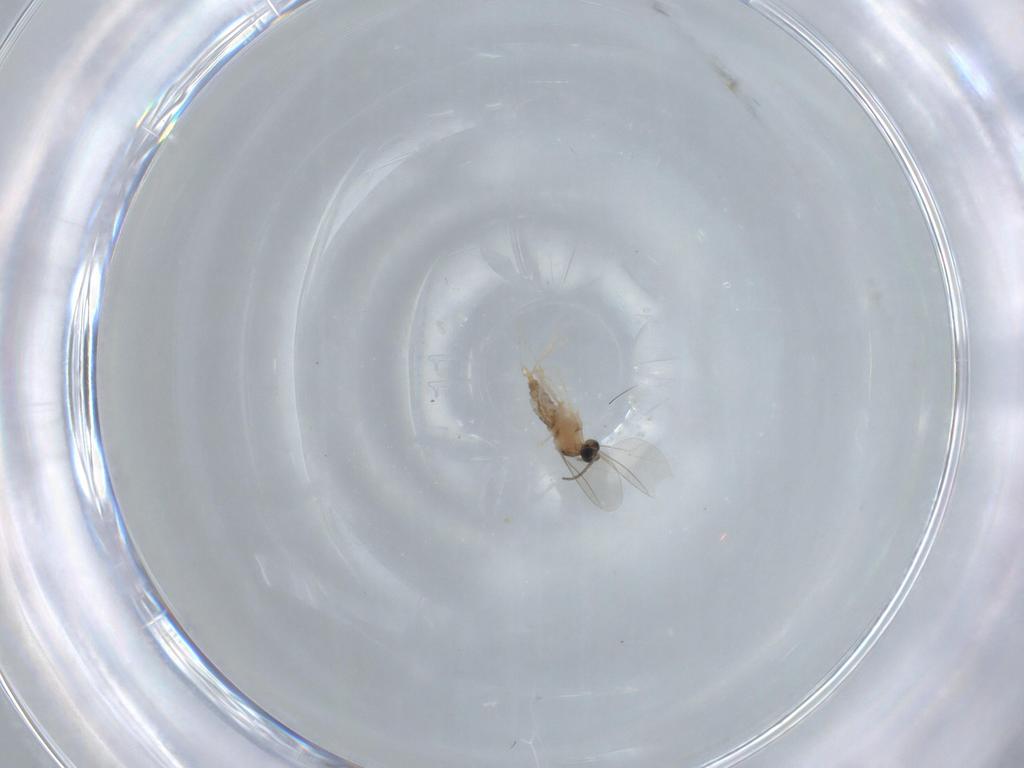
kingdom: Animalia
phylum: Arthropoda
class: Insecta
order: Diptera
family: Cecidomyiidae
